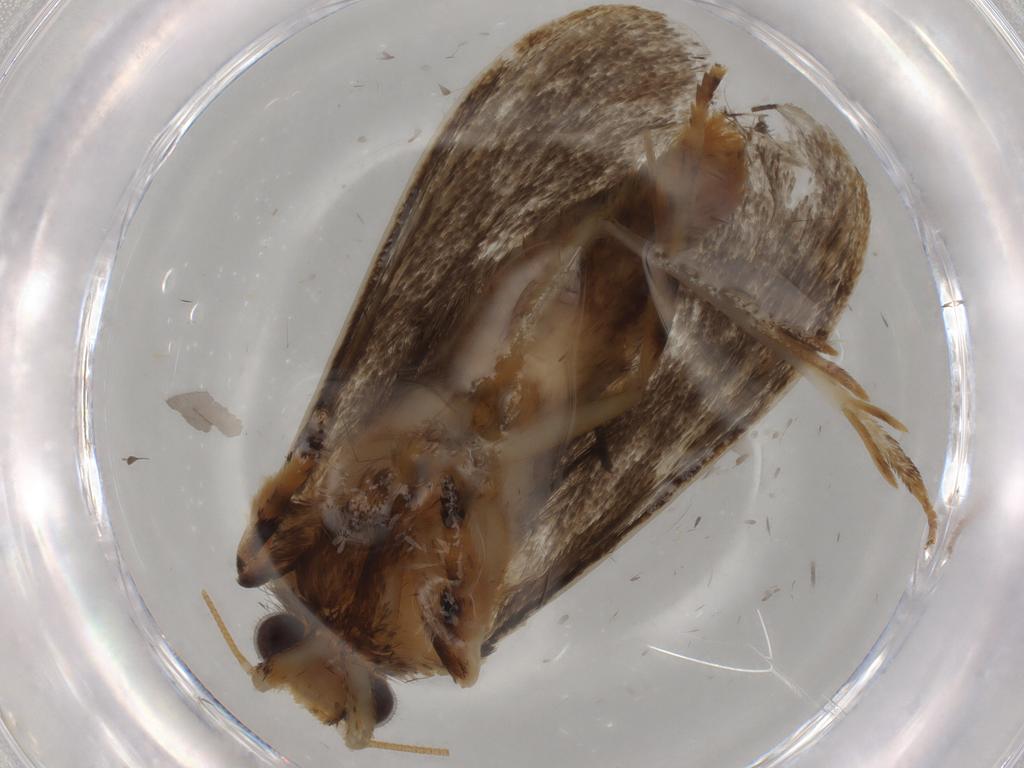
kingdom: Animalia
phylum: Arthropoda
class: Insecta
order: Lepidoptera
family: Tineidae
